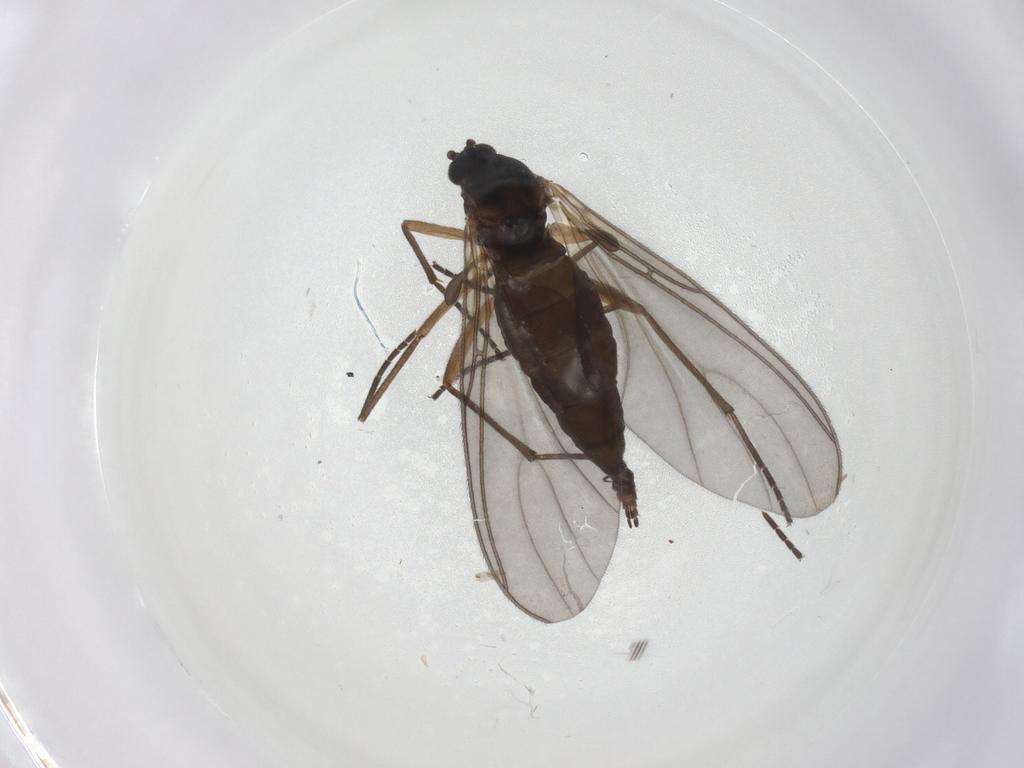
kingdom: Animalia
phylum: Arthropoda
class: Insecta
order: Diptera
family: Sciaridae
